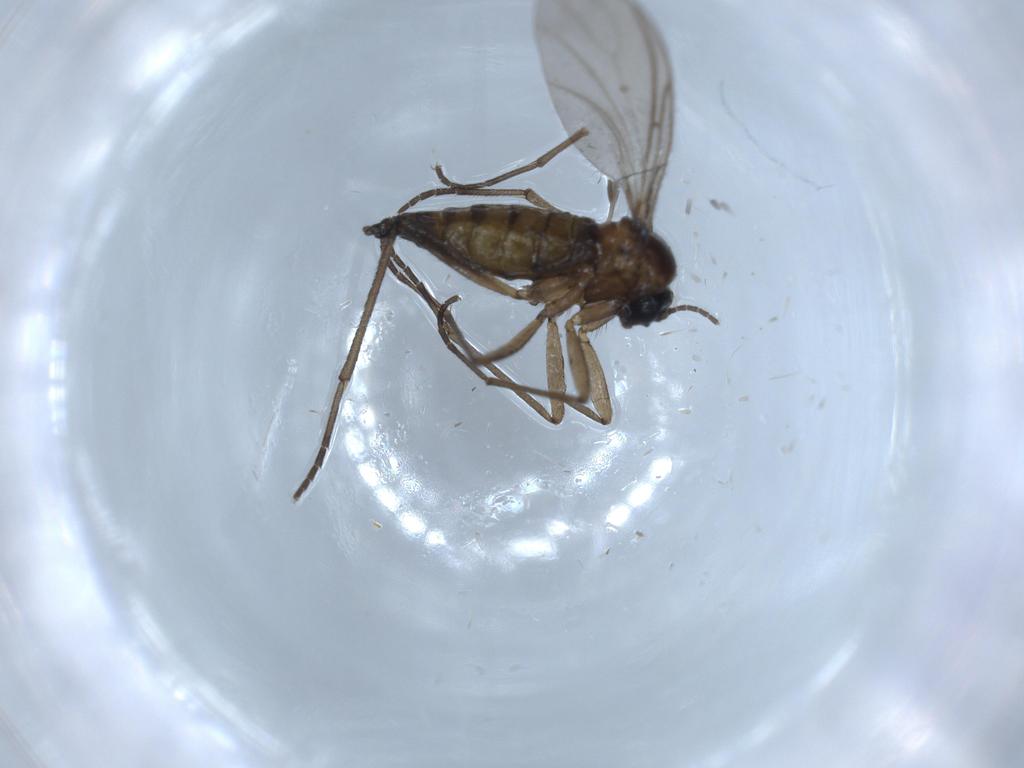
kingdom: Animalia
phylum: Arthropoda
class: Insecta
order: Diptera
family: Sciaridae
